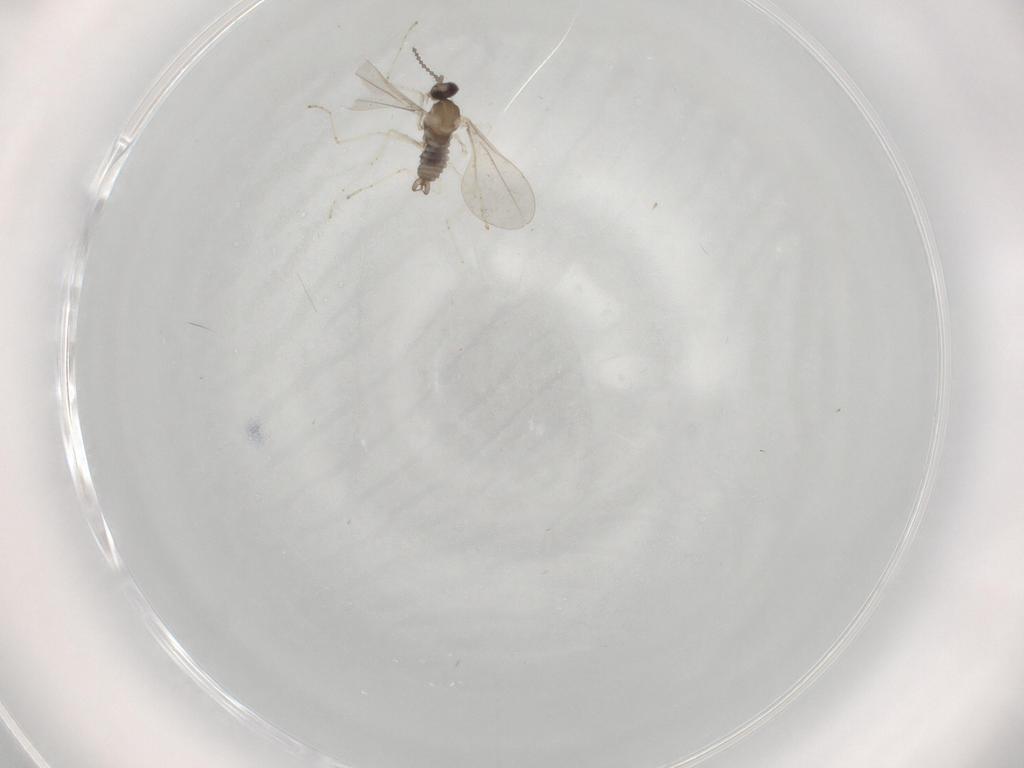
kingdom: Animalia
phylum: Arthropoda
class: Insecta
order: Diptera
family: Cecidomyiidae
